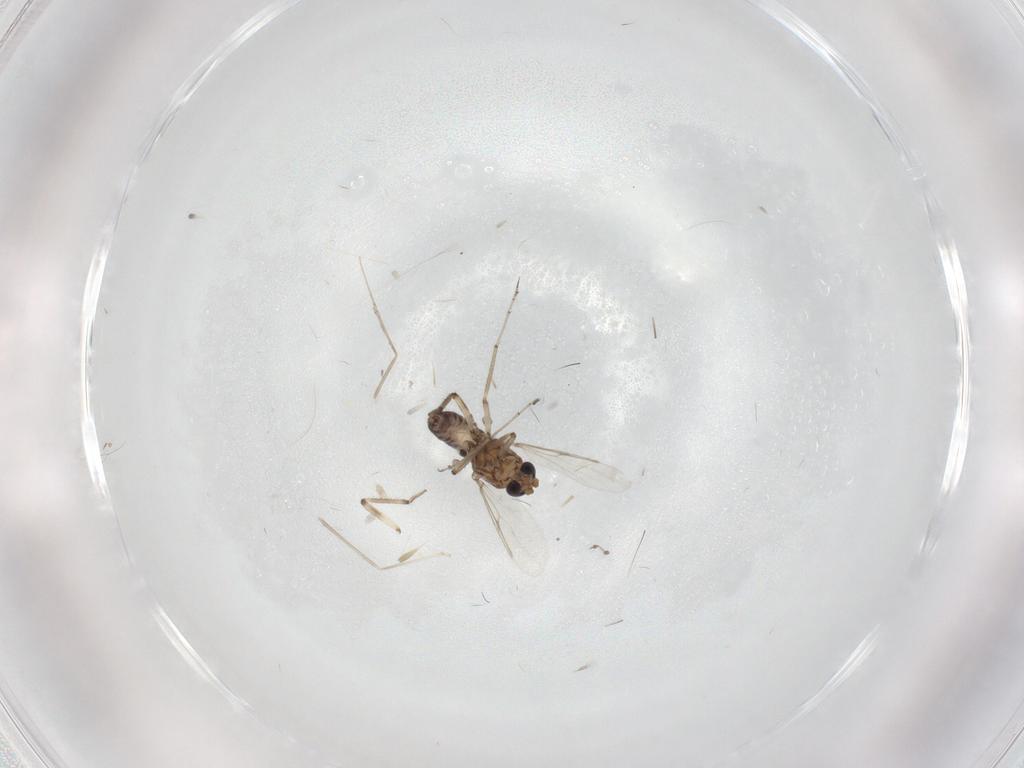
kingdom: Animalia
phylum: Arthropoda
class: Insecta
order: Diptera
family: Ceratopogonidae
